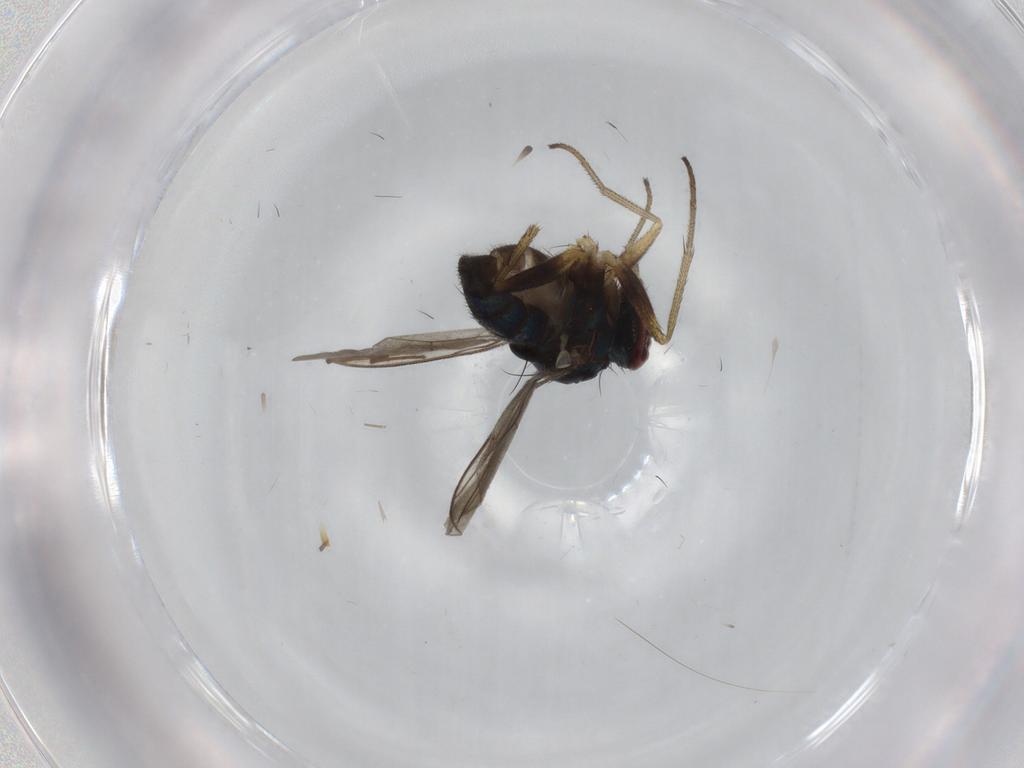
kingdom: Animalia
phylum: Arthropoda
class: Insecta
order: Diptera
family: Sciaridae
